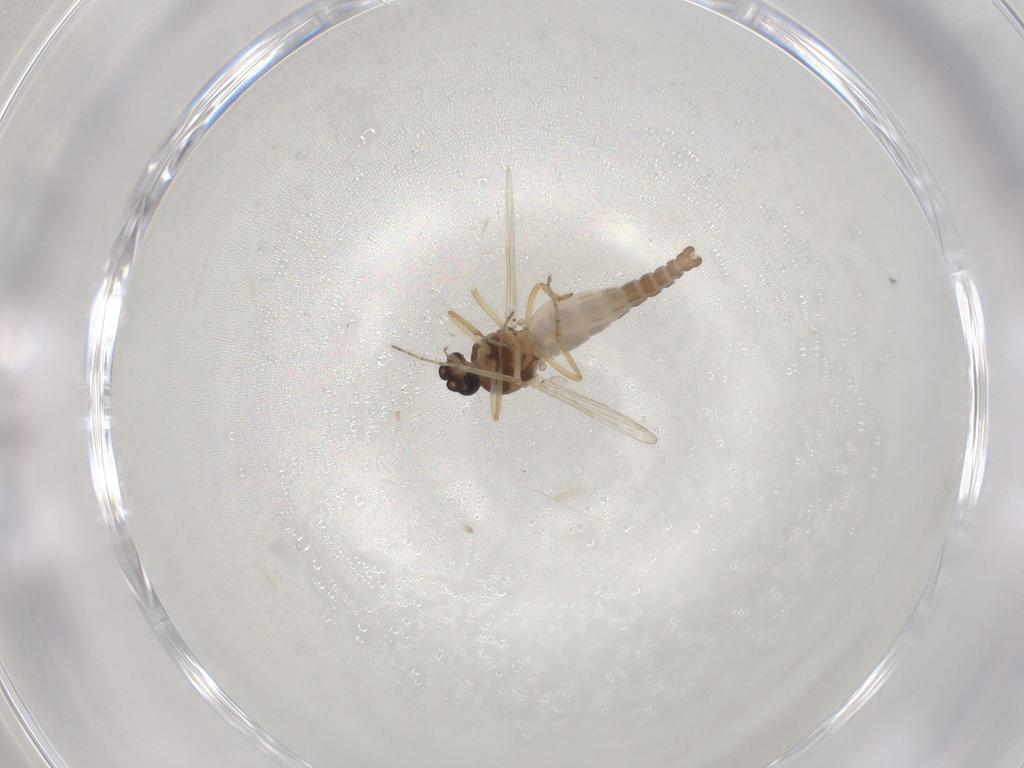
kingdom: Animalia
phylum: Arthropoda
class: Insecta
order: Diptera
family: Ceratopogonidae
